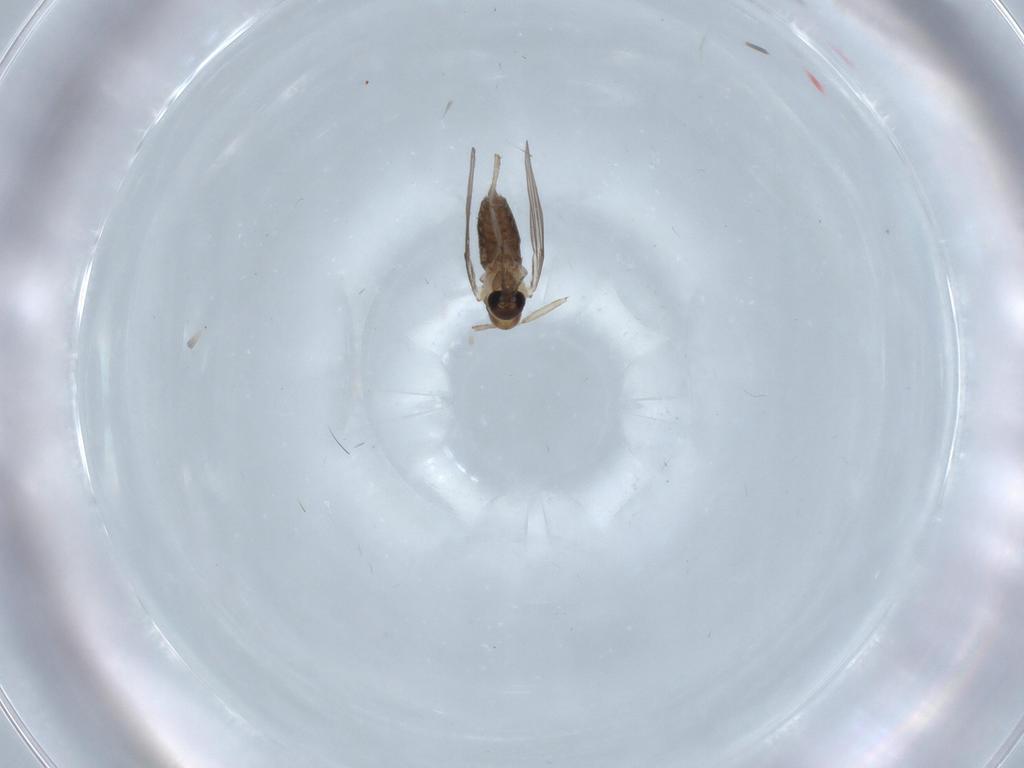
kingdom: Animalia
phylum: Arthropoda
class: Insecta
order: Diptera
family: Psychodidae
